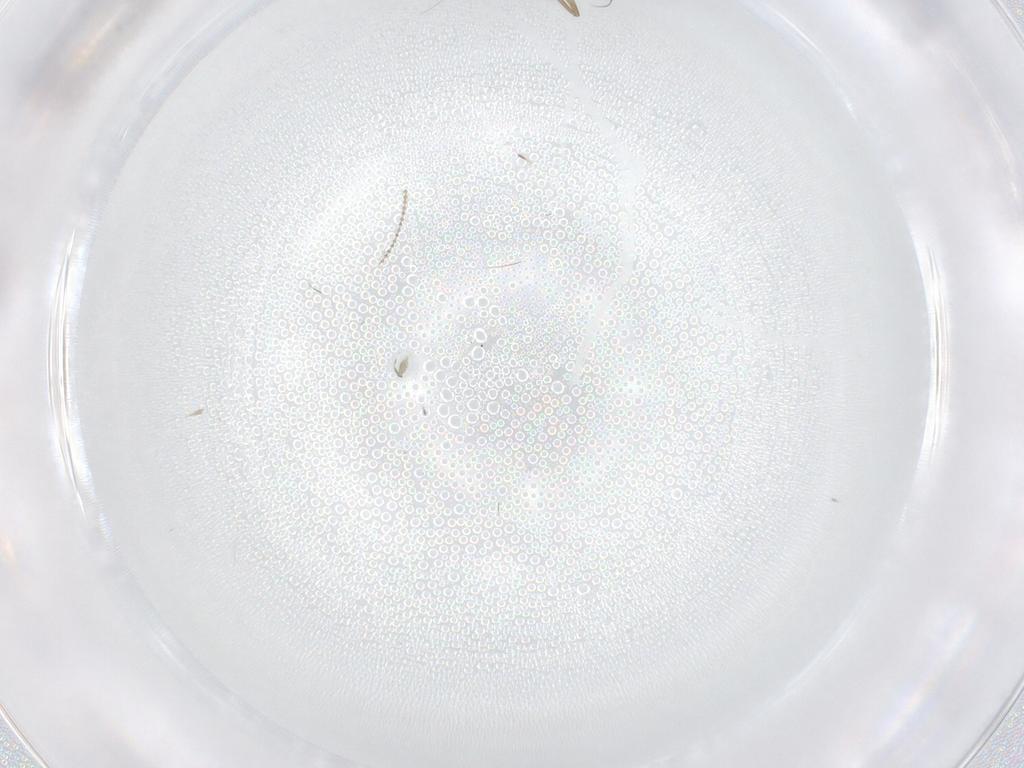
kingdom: Animalia
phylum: Arthropoda
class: Insecta
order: Diptera
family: Phoridae
